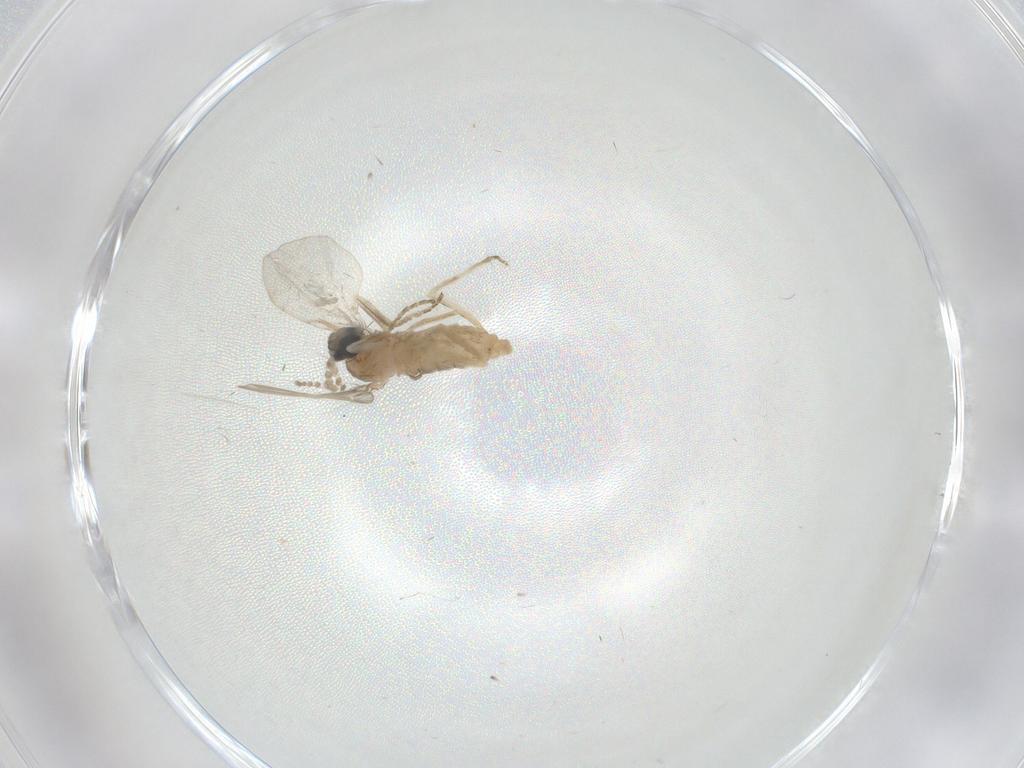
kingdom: Animalia
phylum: Arthropoda
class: Insecta
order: Diptera
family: Cecidomyiidae
